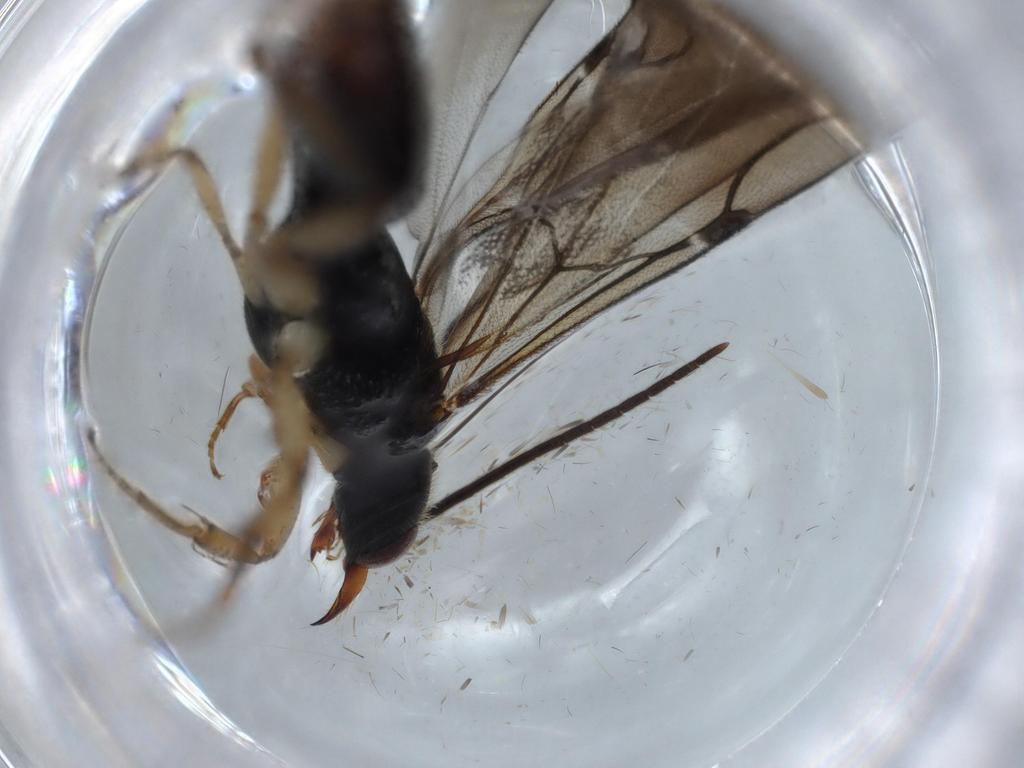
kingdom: Animalia
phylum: Arthropoda
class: Insecta
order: Hymenoptera
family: Bethylidae
